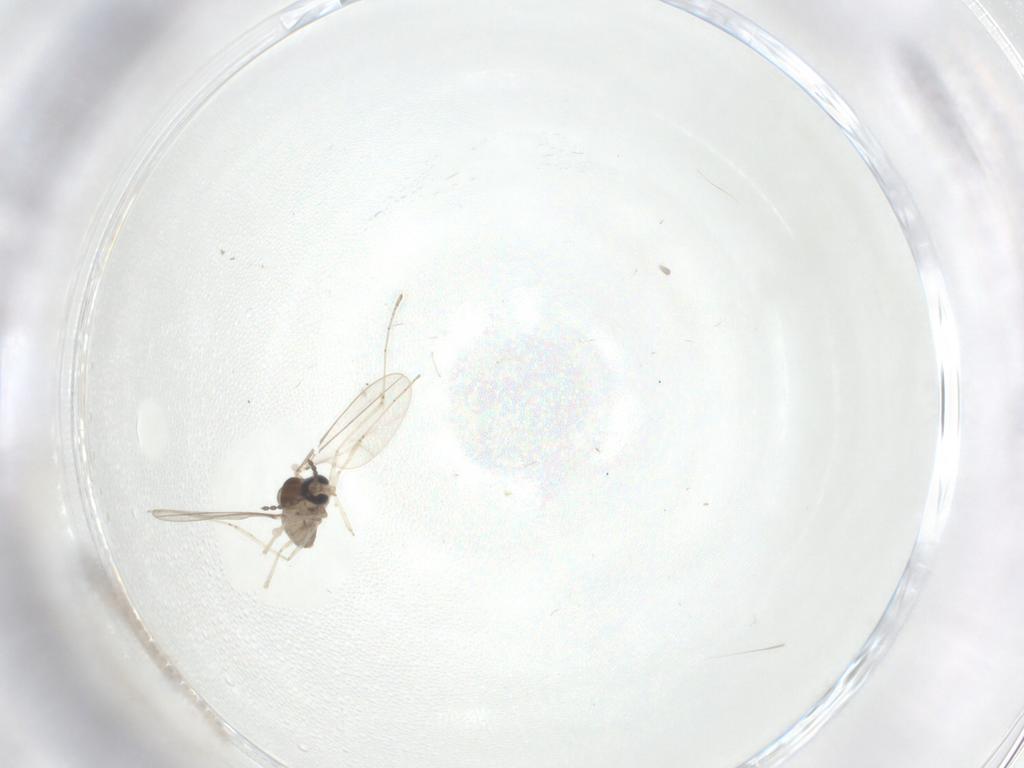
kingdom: Animalia
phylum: Arthropoda
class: Insecta
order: Diptera
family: Cecidomyiidae
